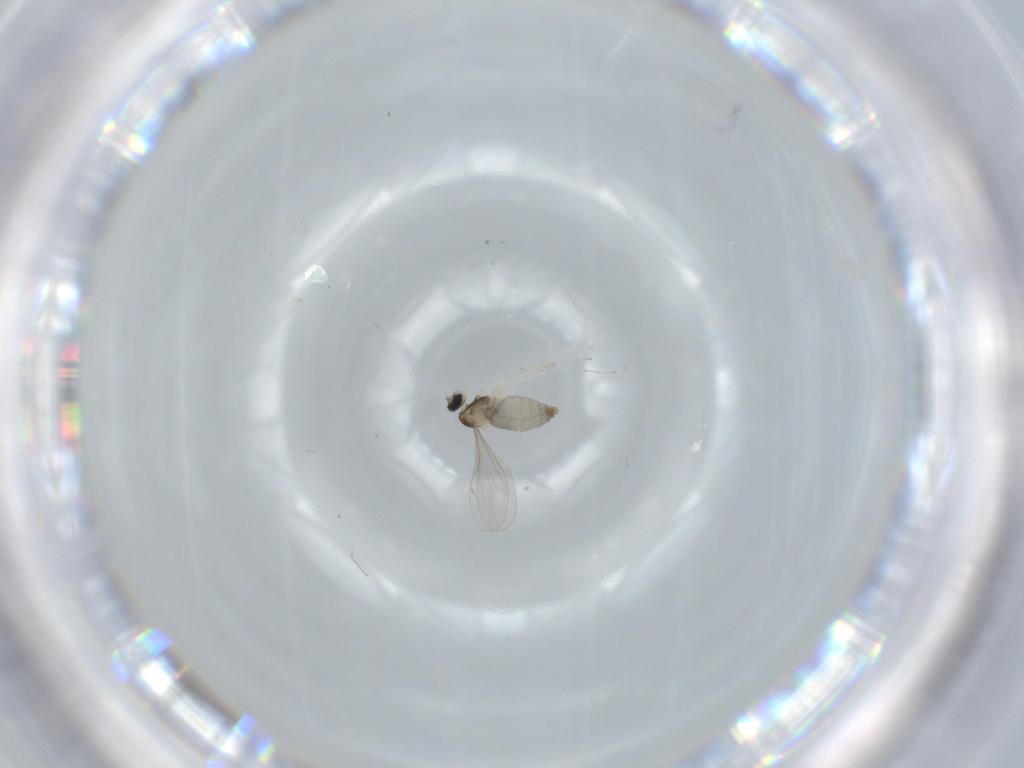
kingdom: Animalia
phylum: Arthropoda
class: Insecta
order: Diptera
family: Cecidomyiidae
